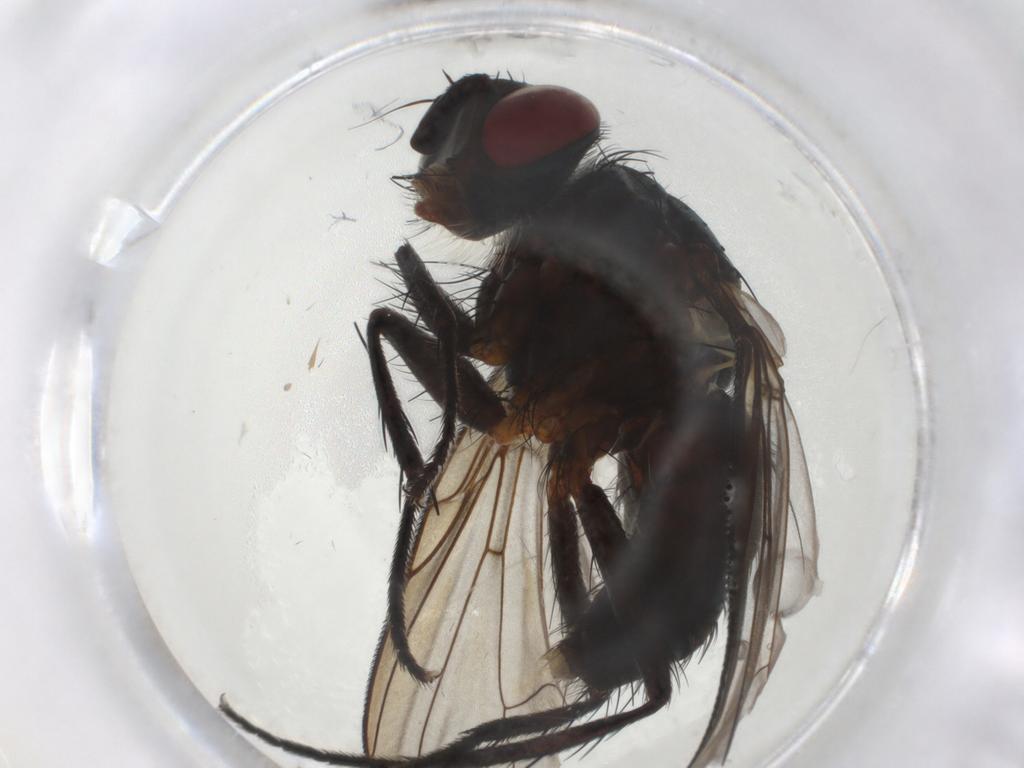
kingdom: Animalia
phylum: Arthropoda
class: Insecta
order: Diptera
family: Tachinidae
